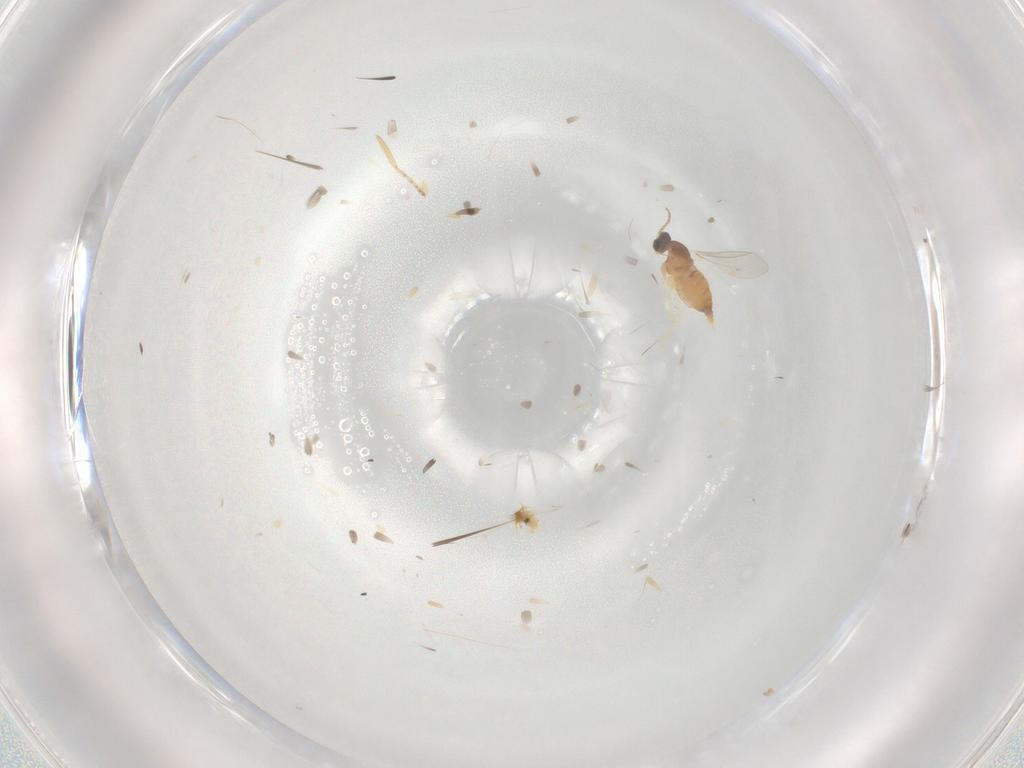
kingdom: Animalia
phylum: Arthropoda
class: Insecta
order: Diptera
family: Cecidomyiidae
